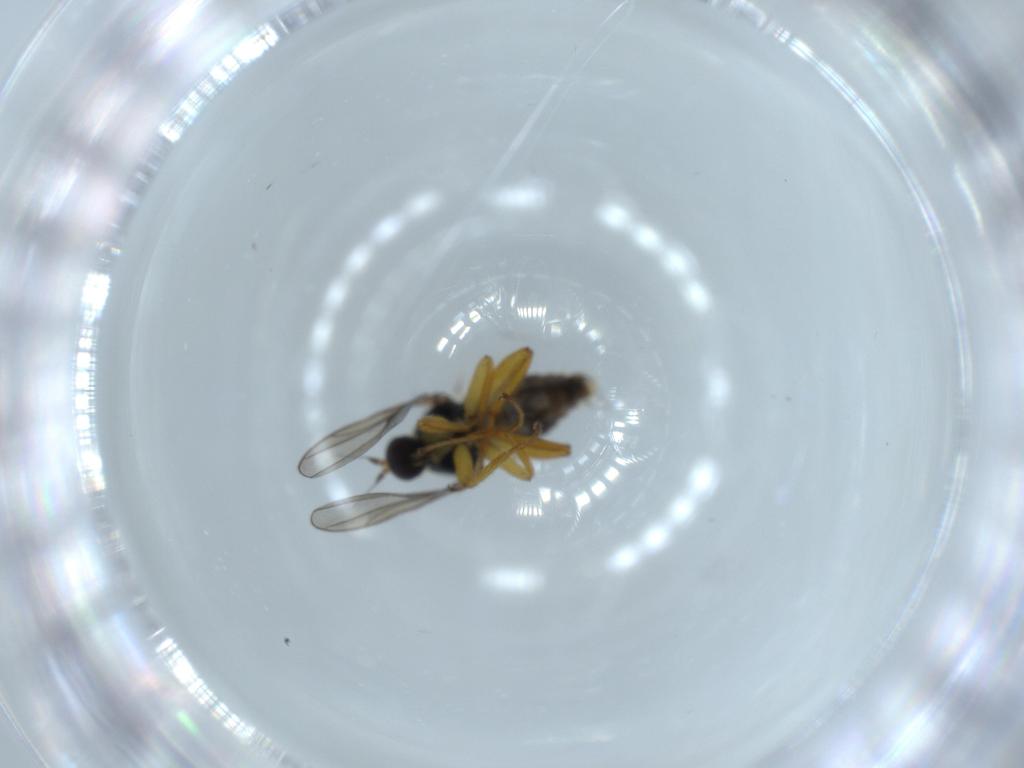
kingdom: Animalia
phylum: Arthropoda
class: Insecta
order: Diptera
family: Hybotidae
